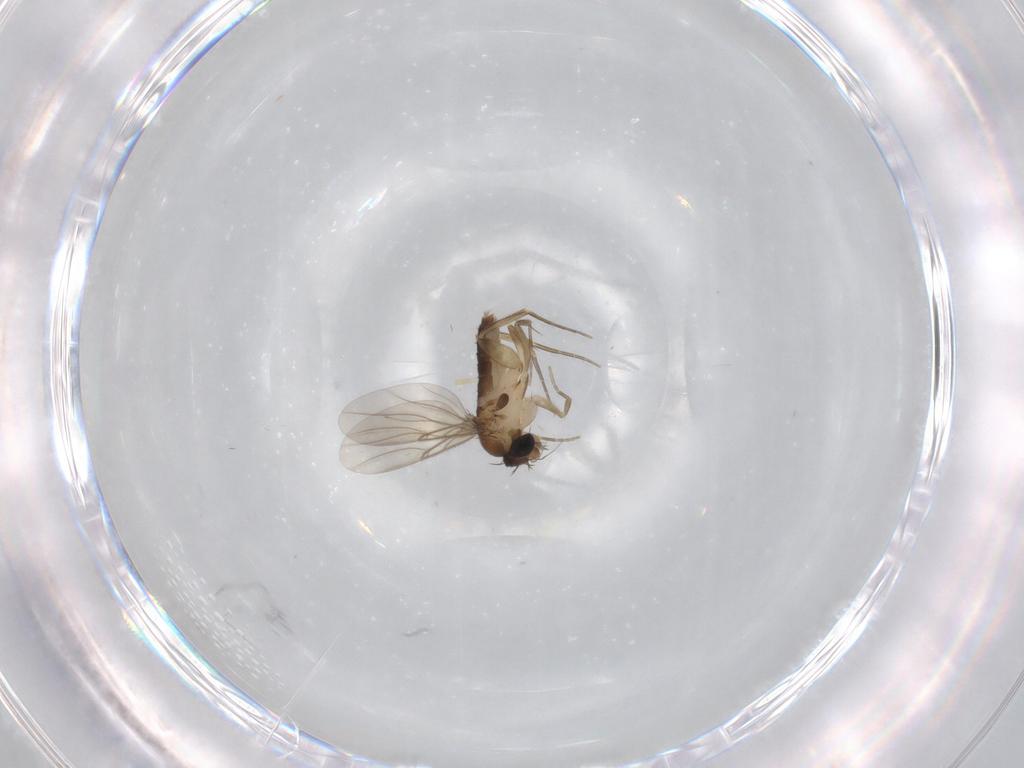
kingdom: Animalia
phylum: Arthropoda
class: Insecta
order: Diptera
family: Phoridae
